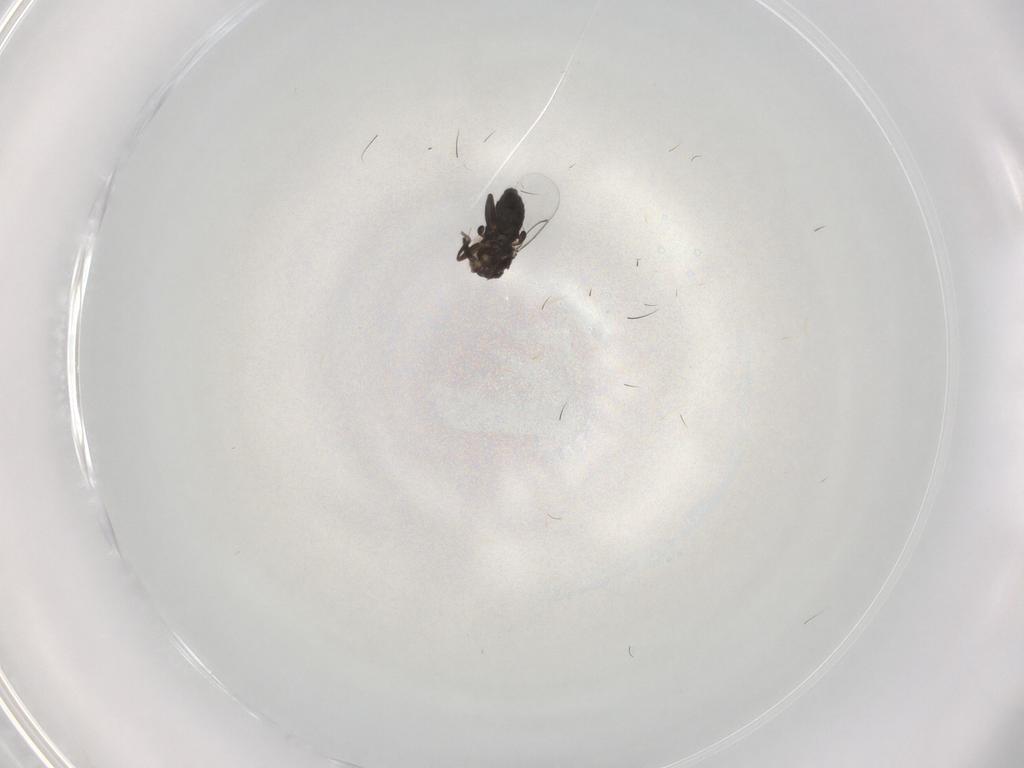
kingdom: Animalia
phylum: Arthropoda
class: Insecta
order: Diptera
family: Phoridae
